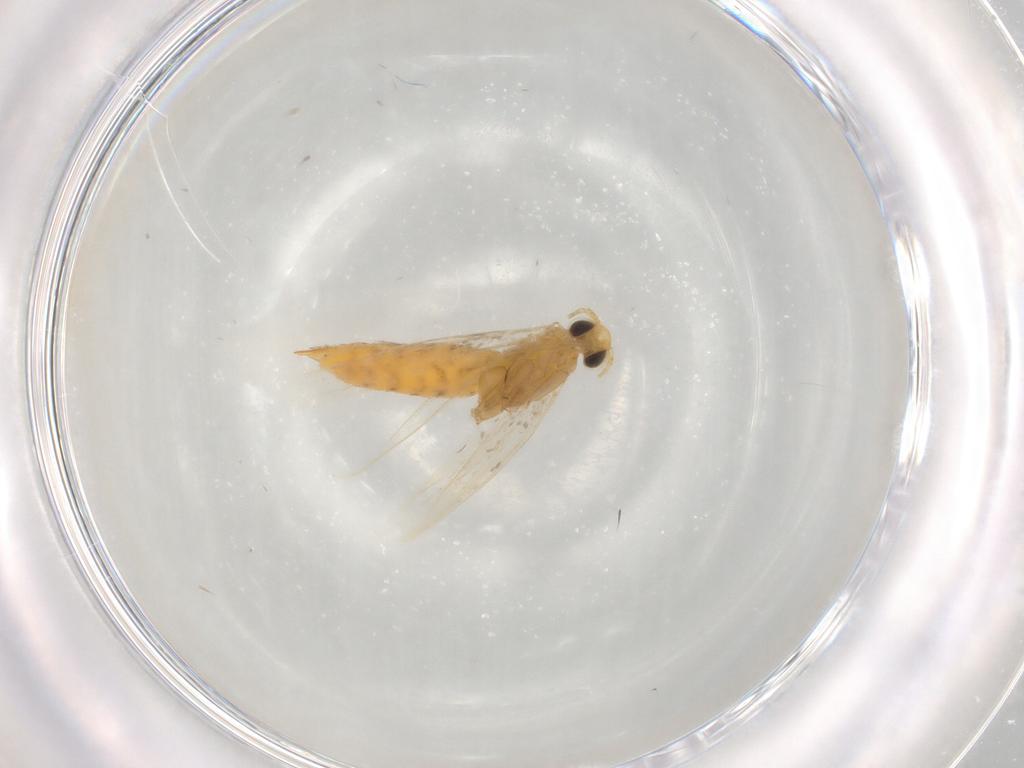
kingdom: Animalia
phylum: Arthropoda
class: Insecta
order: Lepidoptera
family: Gracillariidae
